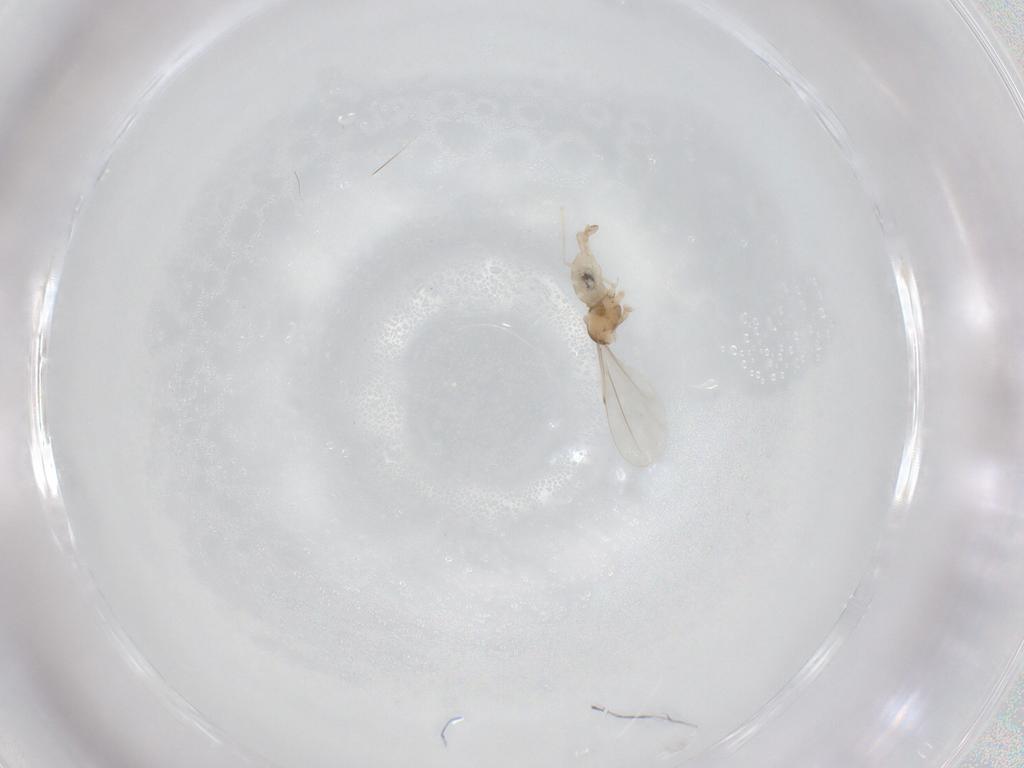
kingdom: Animalia
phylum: Arthropoda
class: Insecta
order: Diptera
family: Cecidomyiidae
